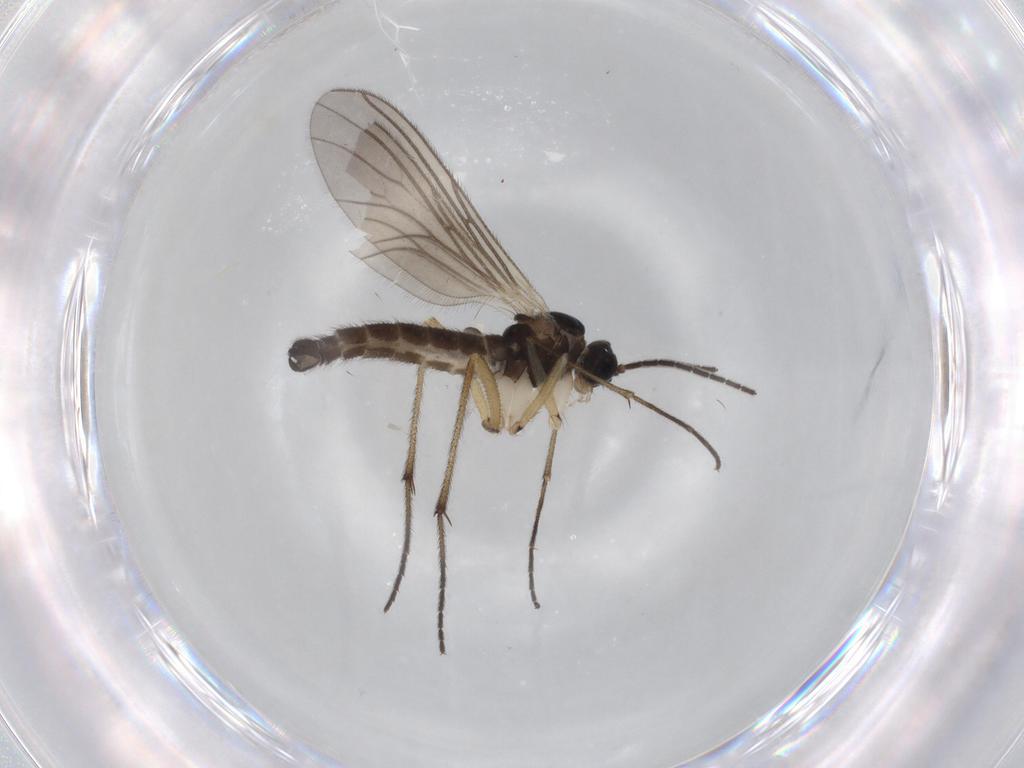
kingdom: Animalia
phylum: Arthropoda
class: Insecta
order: Diptera
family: Sciaridae
